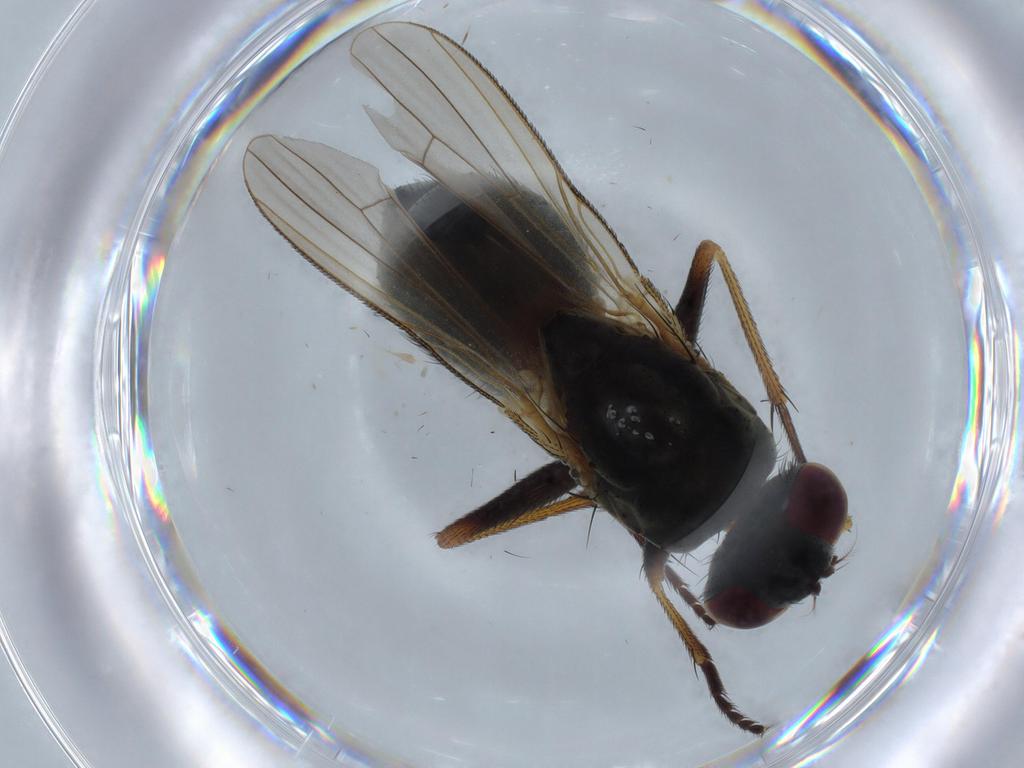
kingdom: Animalia
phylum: Arthropoda
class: Insecta
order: Diptera
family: Muscidae
